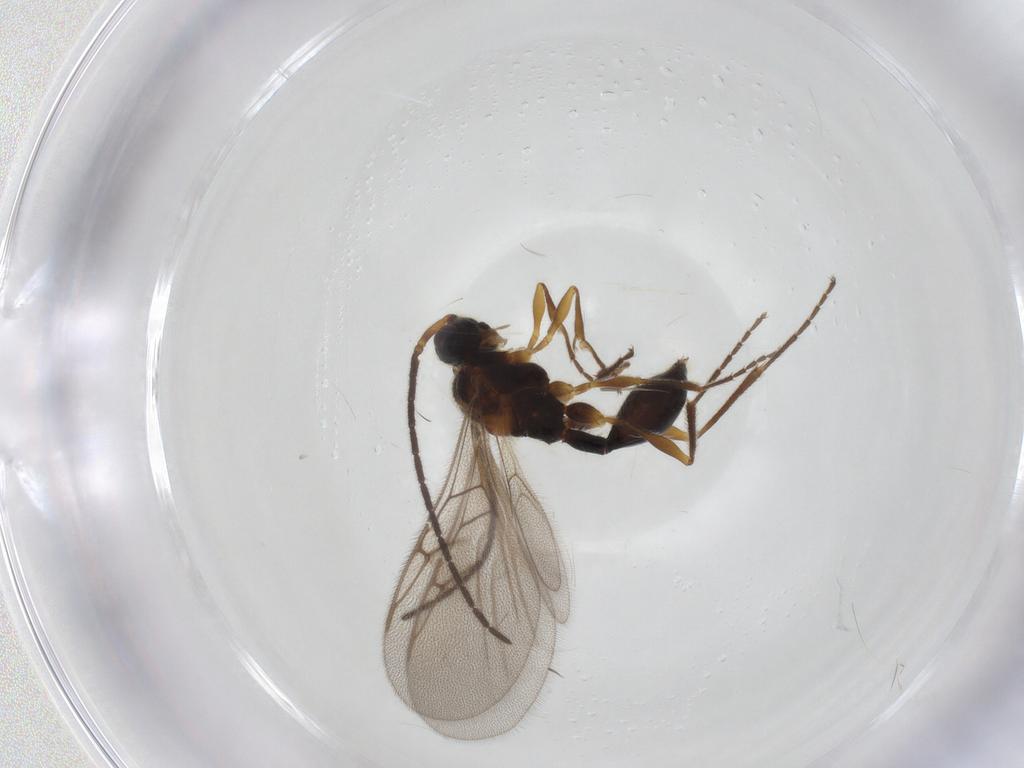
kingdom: Animalia
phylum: Arthropoda
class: Insecta
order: Hymenoptera
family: Diapriidae
